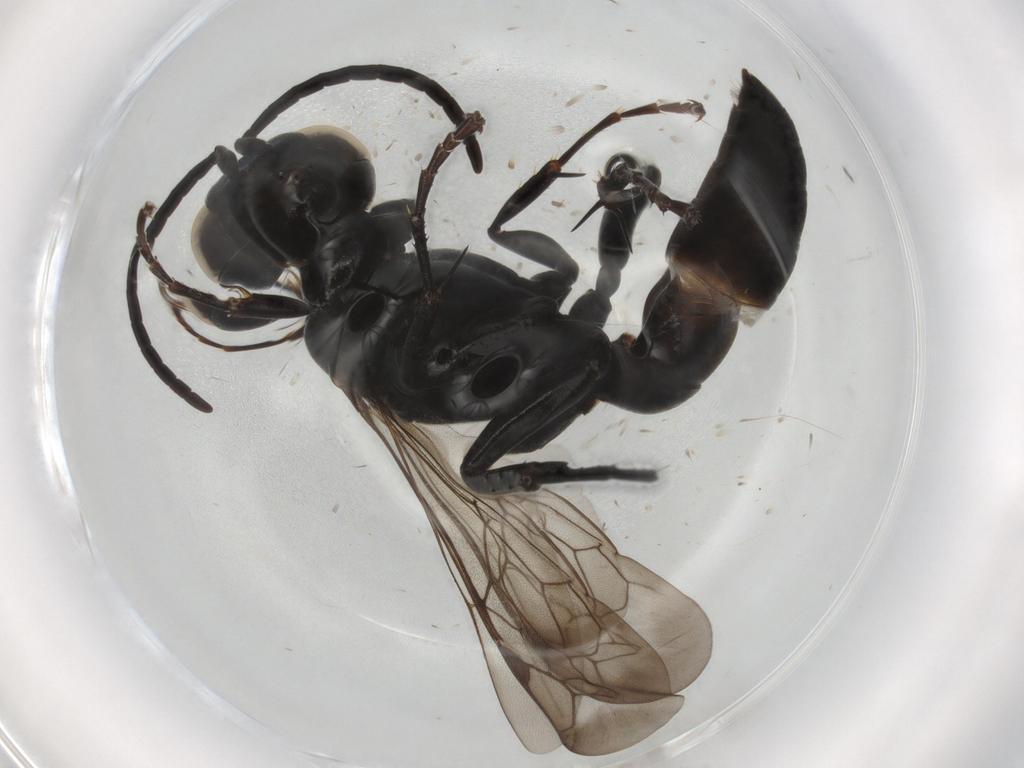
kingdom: Animalia
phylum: Arthropoda
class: Insecta
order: Hymenoptera
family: Crabronidae
